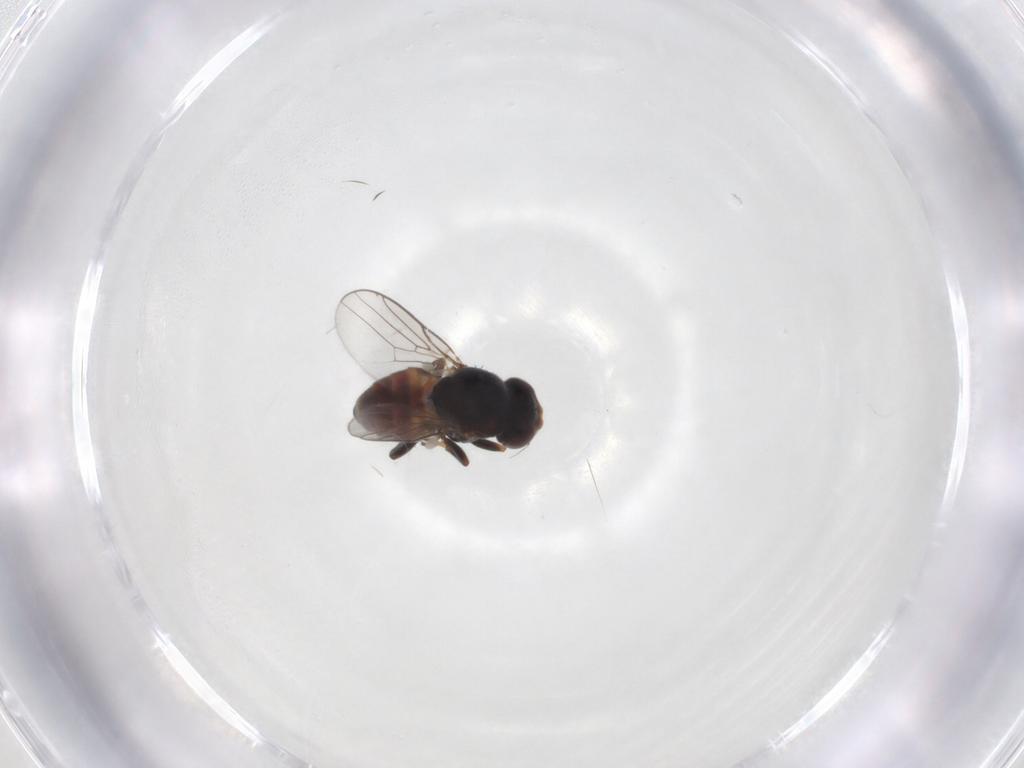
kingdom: Animalia
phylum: Arthropoda
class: Insecta
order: Diptera
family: Chloropidae
